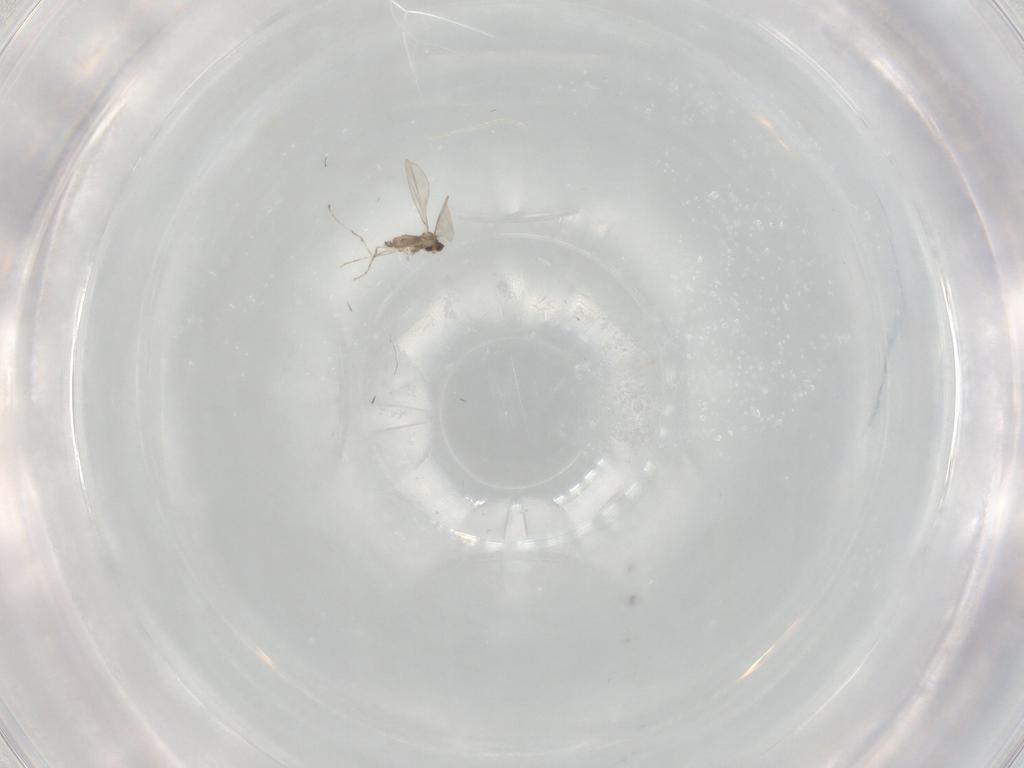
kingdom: Animalia
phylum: Arthropoda
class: Insecta
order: Diptera
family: Cecidomyiidae
